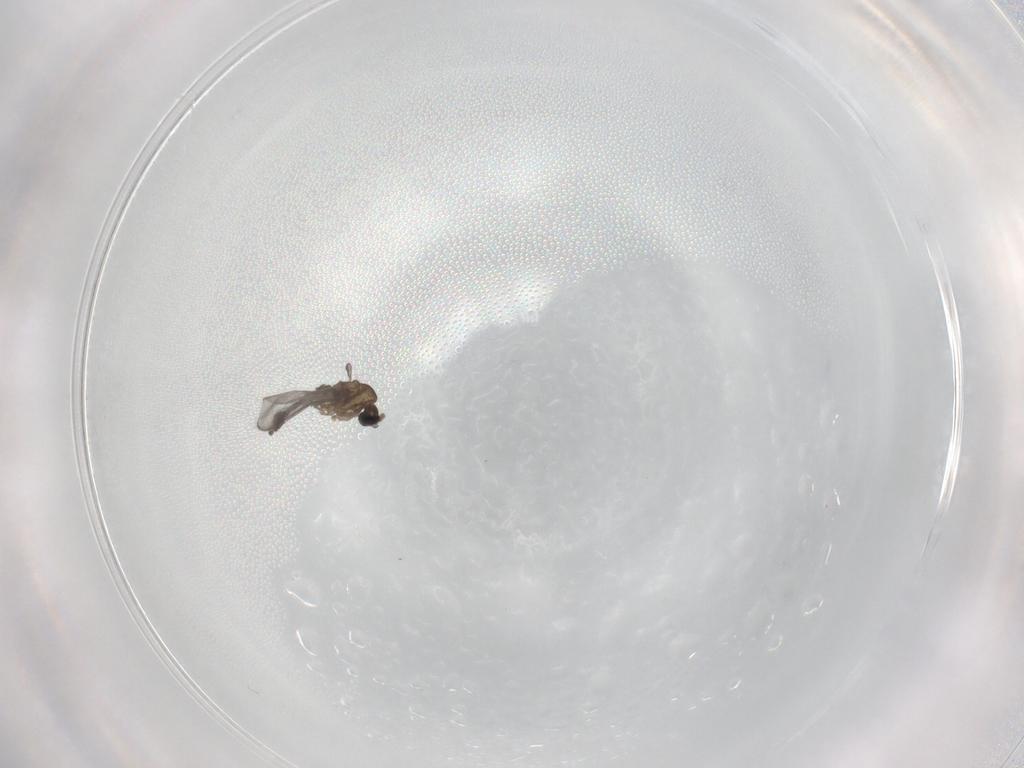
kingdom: Animalia
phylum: Arthropoda
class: Insecta
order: Diptera
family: Sciaridae
